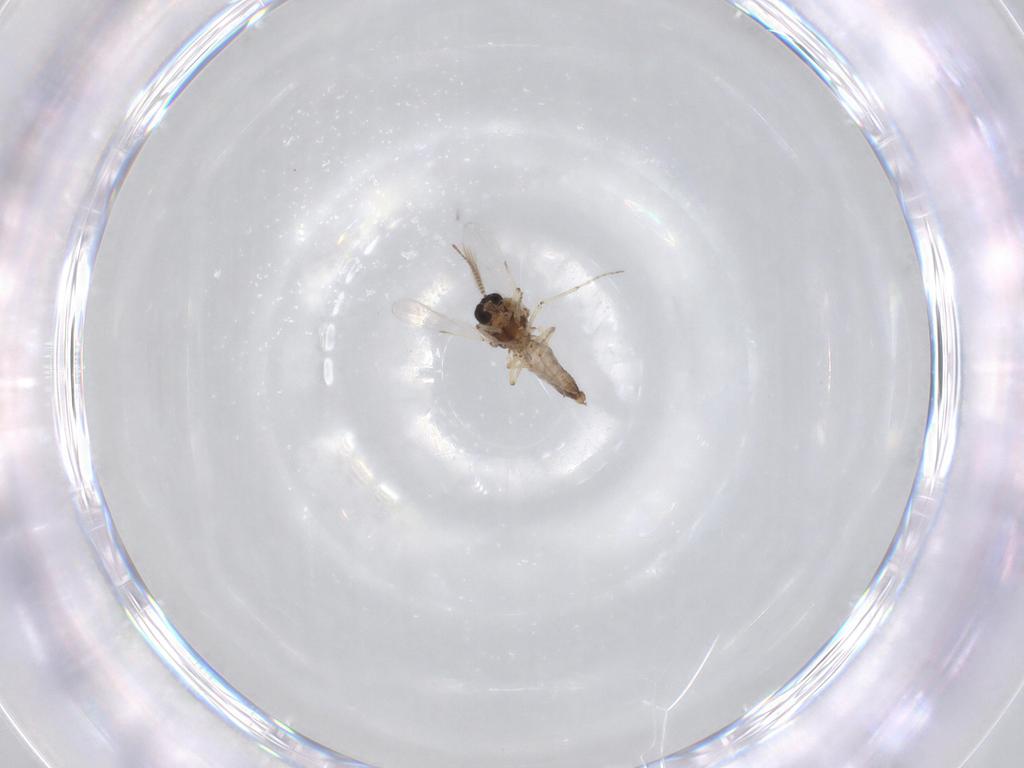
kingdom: Animalia
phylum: Arthropoda
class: Insecta
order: Diptera
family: Ceratopogonidae
